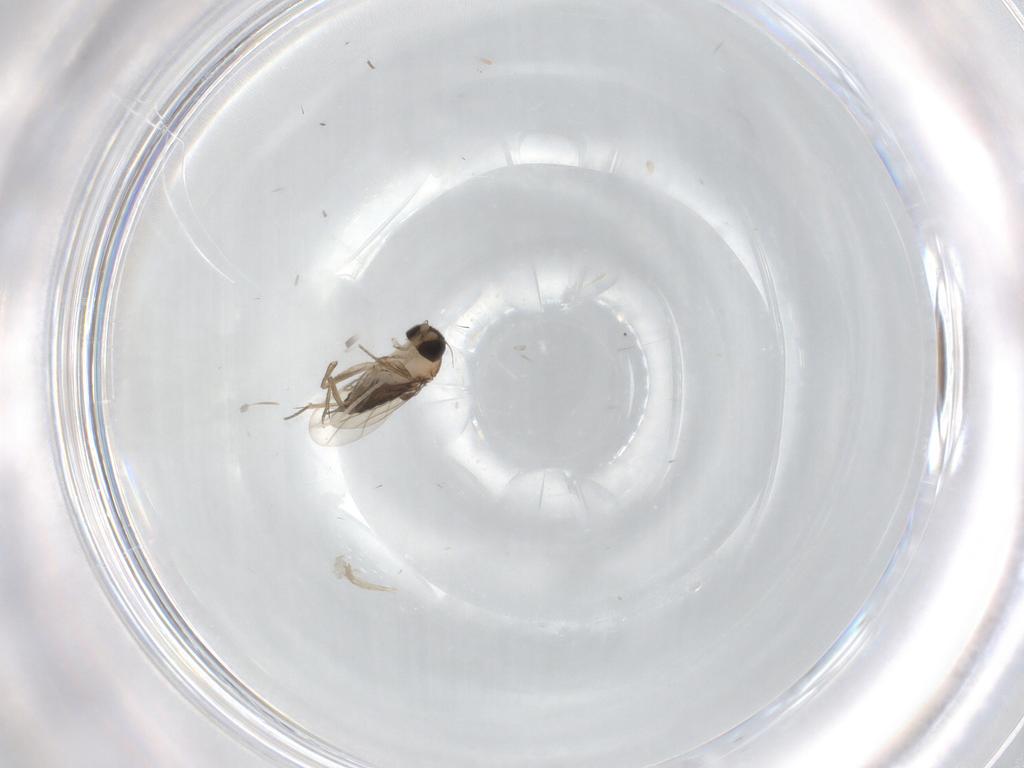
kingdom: Animalia
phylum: Arthropoda
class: Insecta
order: Diptera
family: Phoridae
